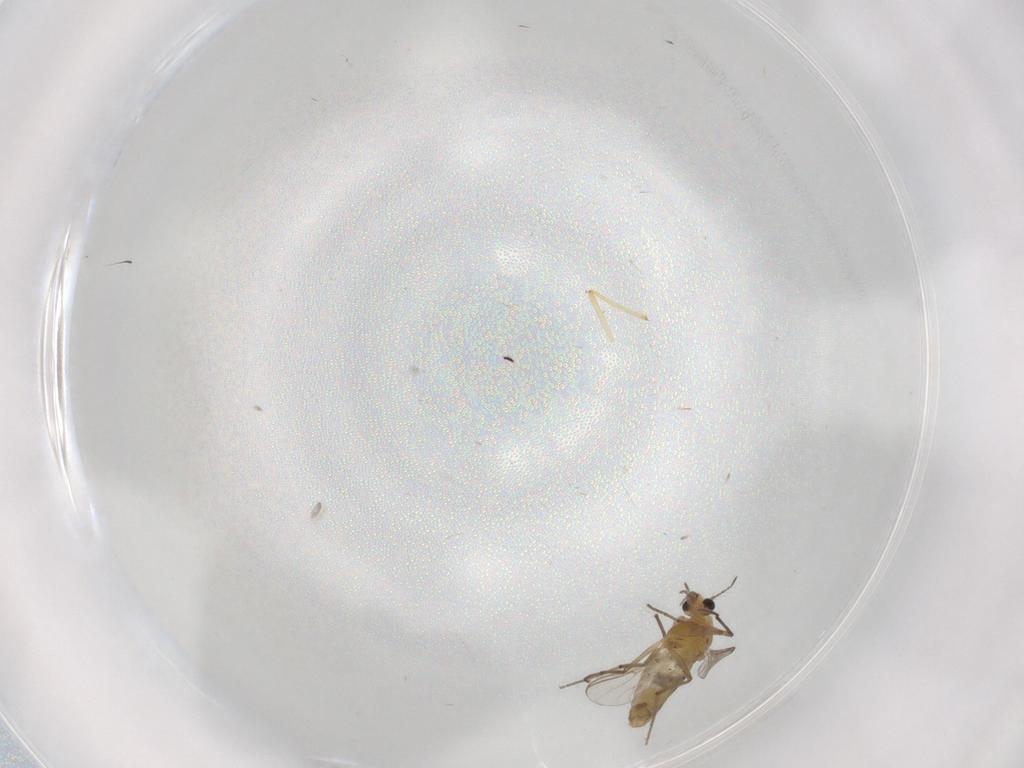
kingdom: Animalia
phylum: Arthropoda
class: Insecta
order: Diptera
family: Chironomidae
